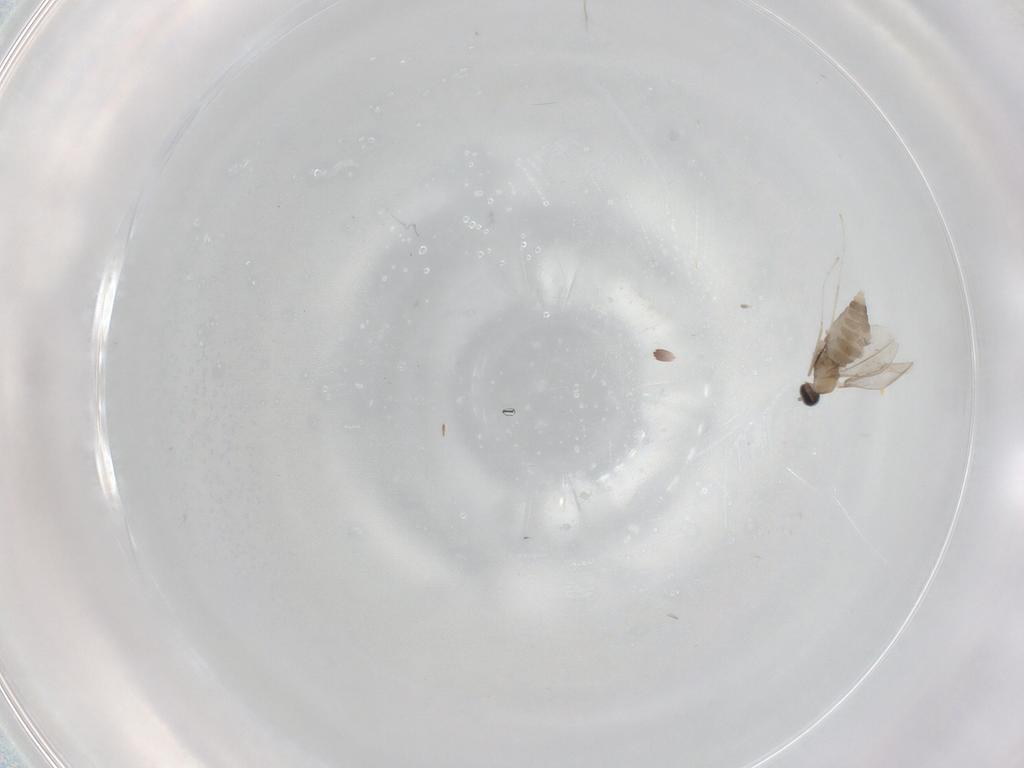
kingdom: Animalia
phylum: Arthropoda
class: Insecta
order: Diptera
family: Cecidomyiidae
